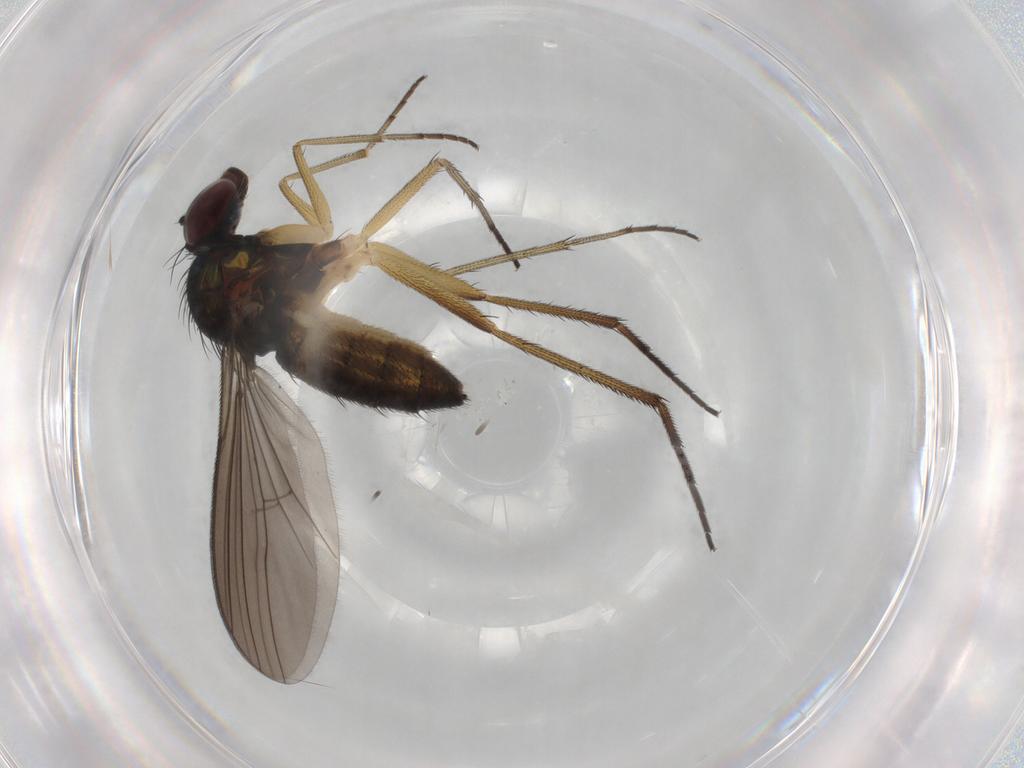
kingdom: Animalia
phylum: Arthropoda
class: Insecta
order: Diptera
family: Dolichopodidae
